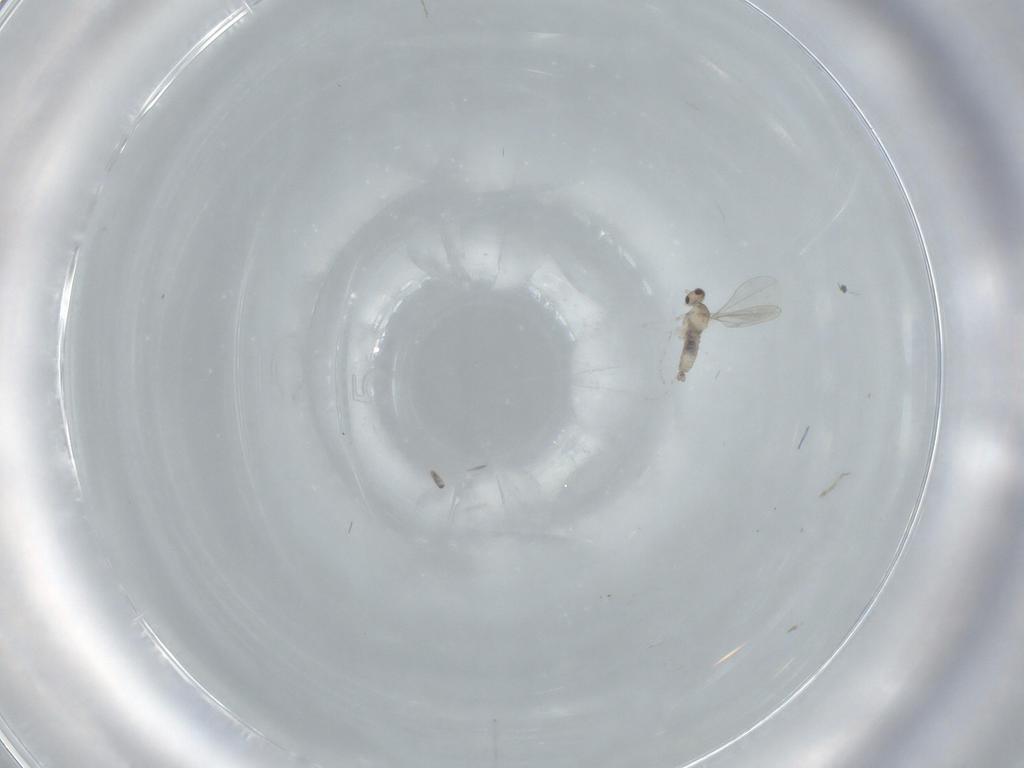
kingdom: Animalia
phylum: Arthropoda
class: Insecta
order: Diptera
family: Cecidomyiidae
